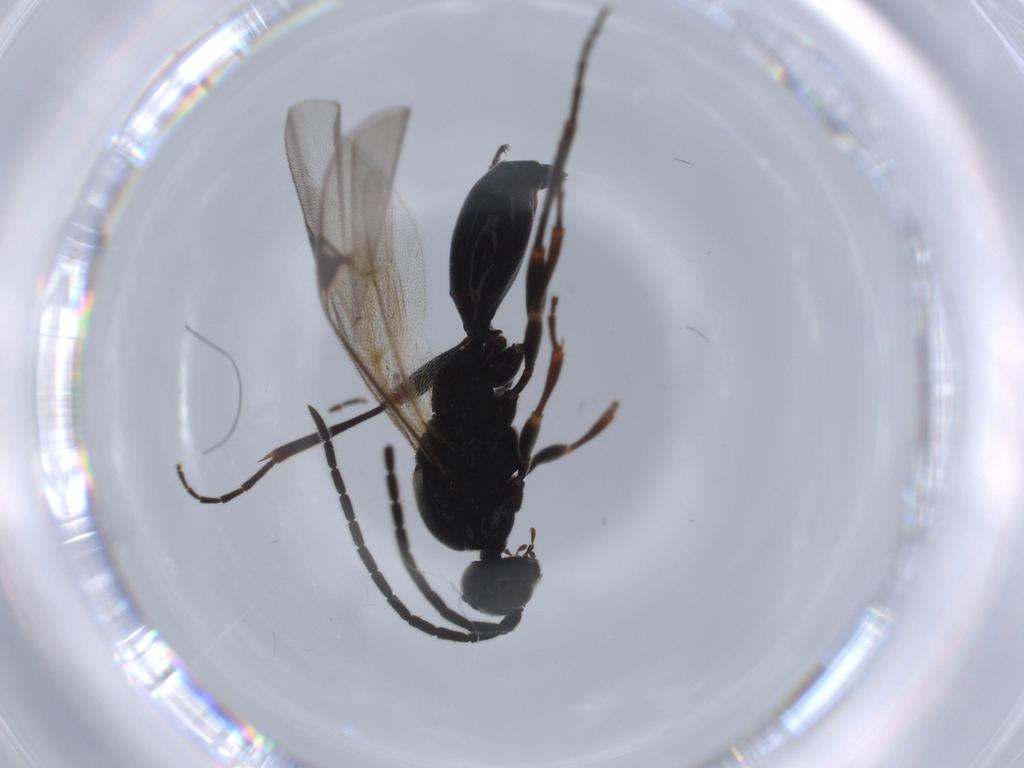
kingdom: Animalia
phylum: Arthropoda
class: Insecta
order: Hymenoptera
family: Proctotrupidae
